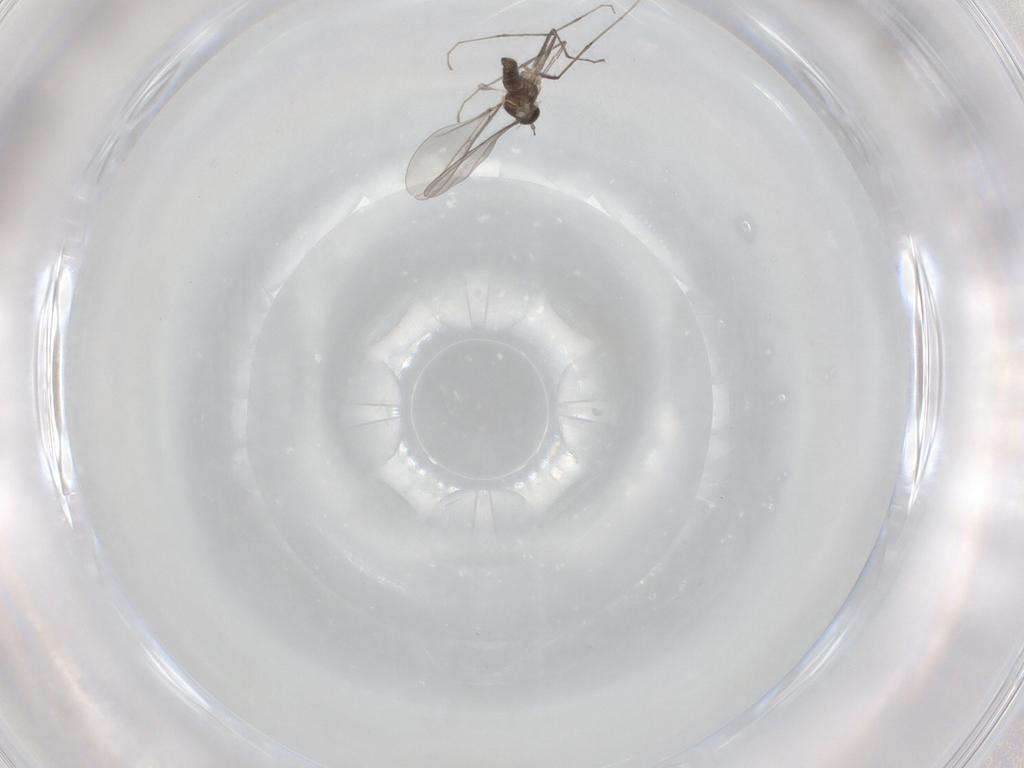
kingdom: Animalia
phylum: Arthropoda
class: Insecta
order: Diptera
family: Cecidomyiidae
